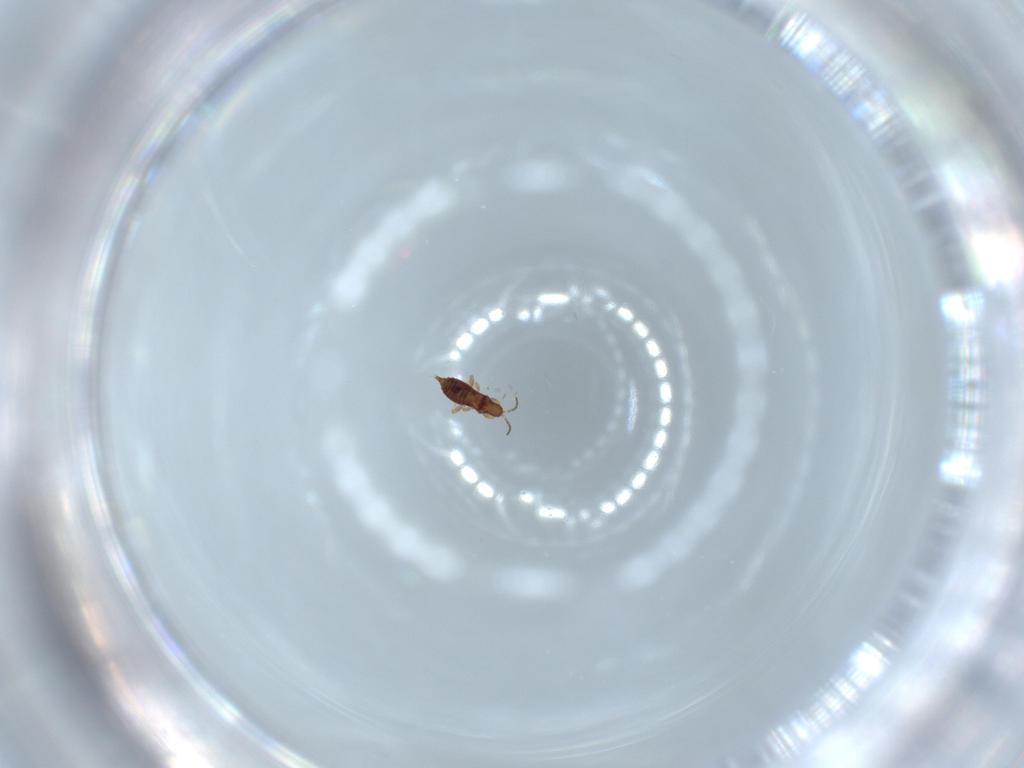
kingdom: Animalia
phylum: Arthropoda
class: Insecta
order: Thysanoptera
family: Phlaeothripidae
